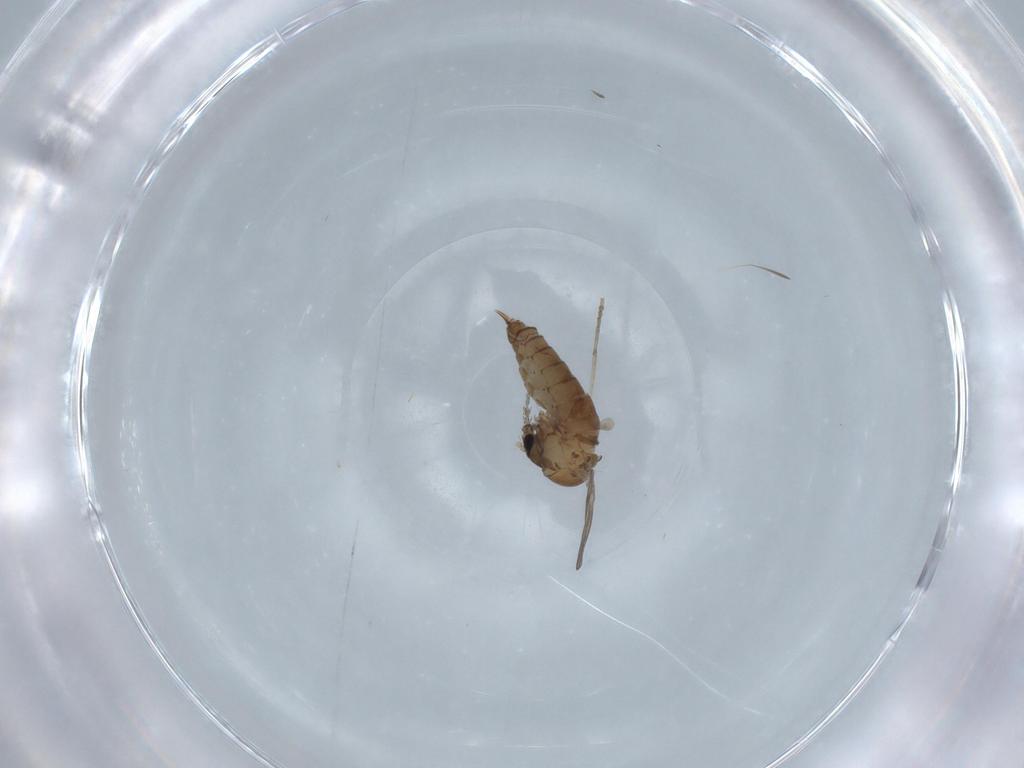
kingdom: Animalia
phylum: Arthropoda
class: Insecta
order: Diptera
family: Psychodidae
